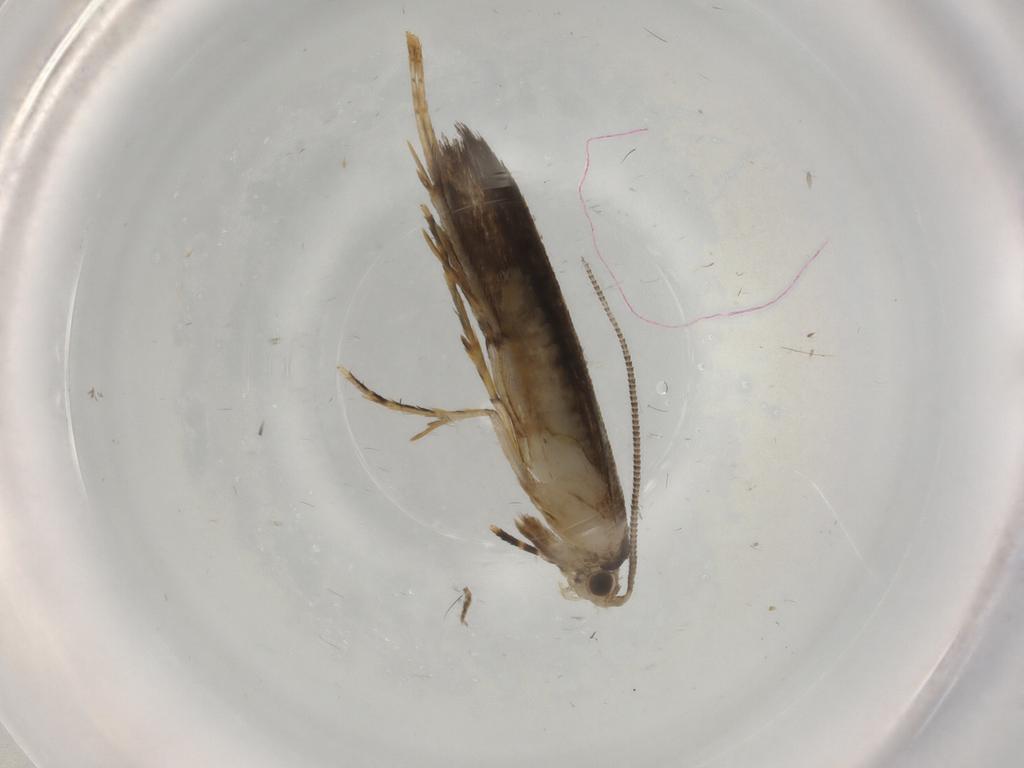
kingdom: Animalia
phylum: Arthropoda
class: Insecta
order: Lepidoptera
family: Tineidae
